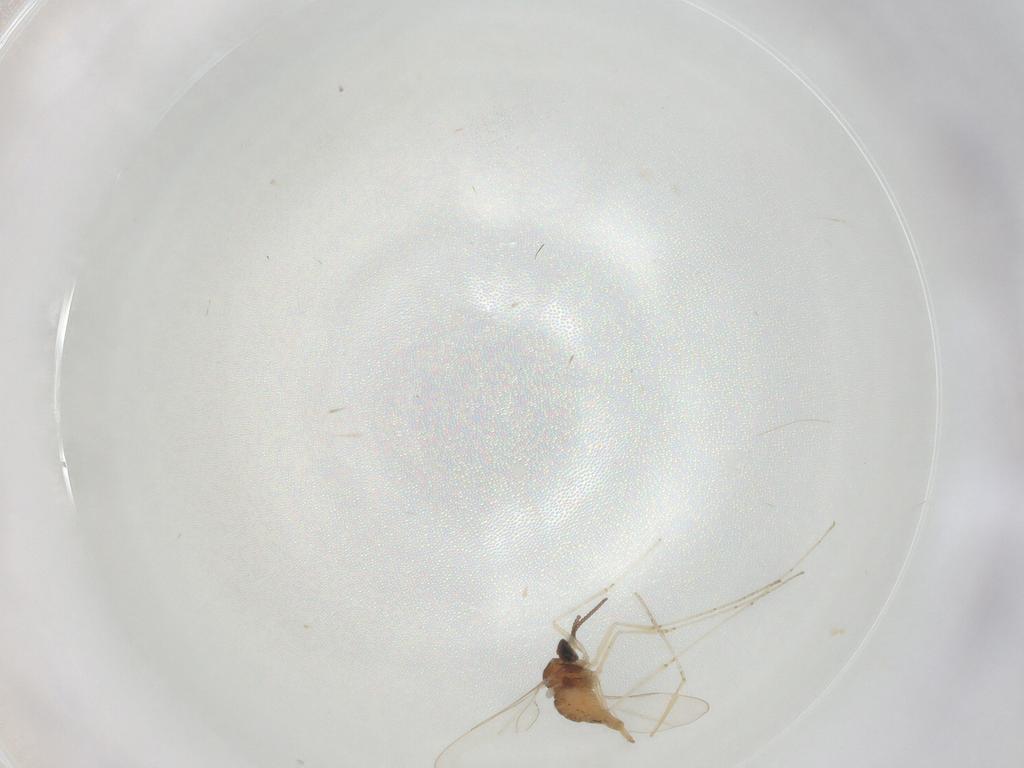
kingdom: Animalia
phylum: Arthropoda
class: Insecta
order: Diptera
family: Cecidomyiidae
